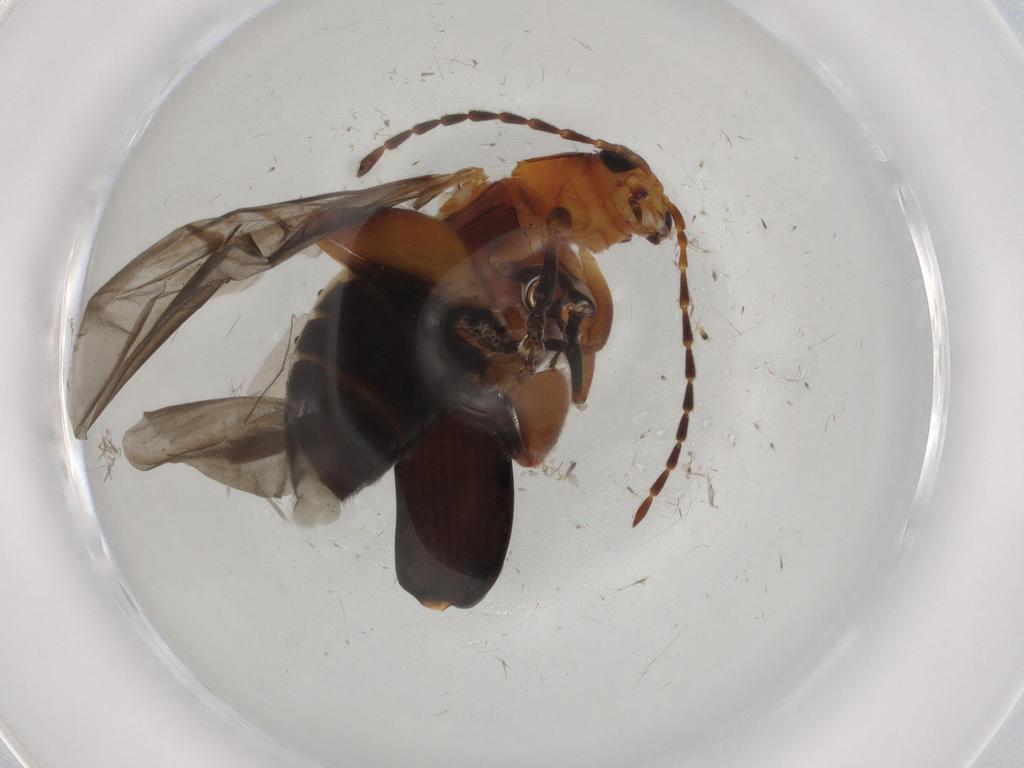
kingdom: Animalia
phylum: Arthropoda
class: Insecta
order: Coleoptera
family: Chrysomelidae
